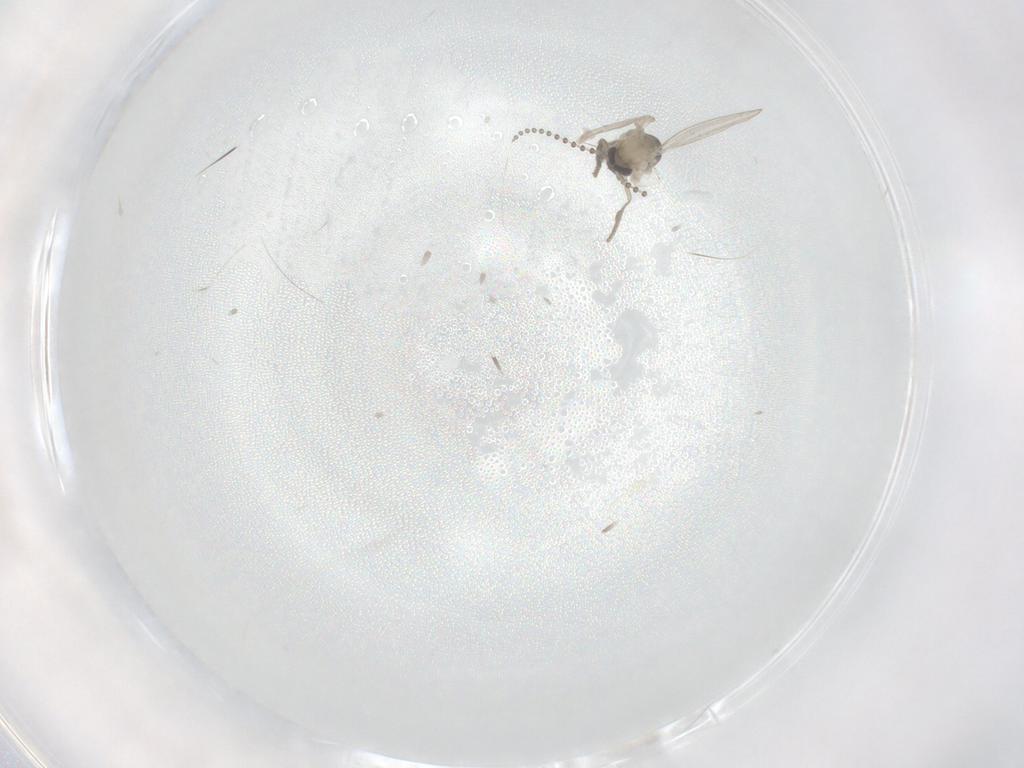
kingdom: Animalia
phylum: Arthropoda
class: Insecta
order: Diptera
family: Psychodidae
